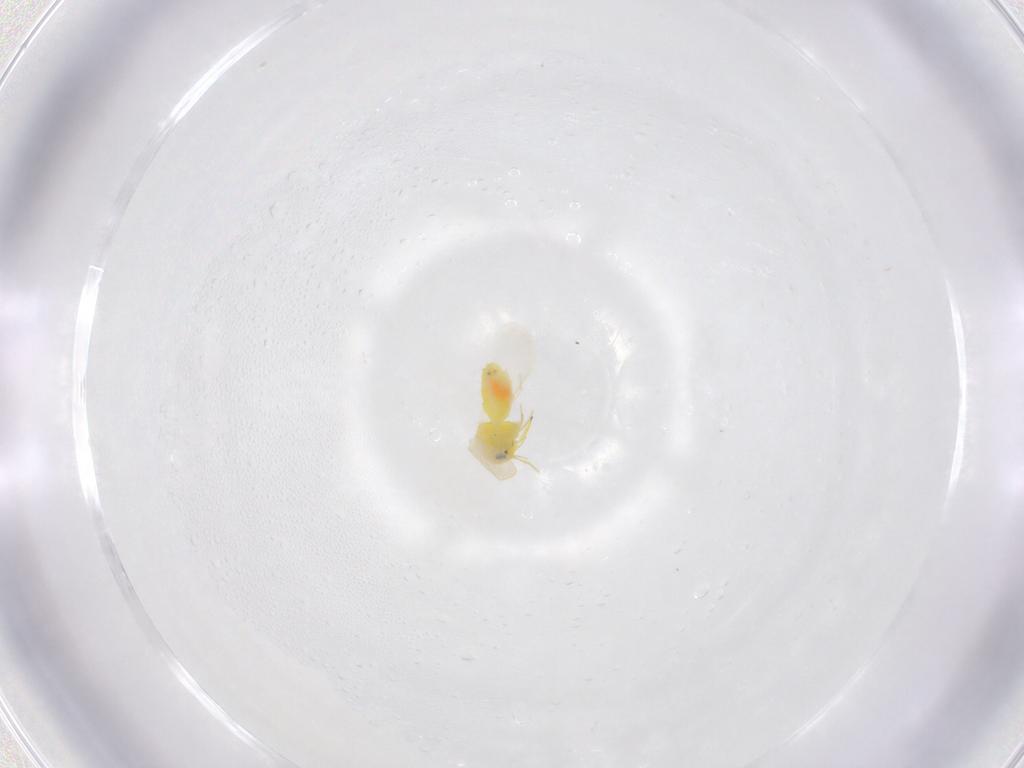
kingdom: Animalia
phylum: Arthropoda
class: Insecta
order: Hemiptera
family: Aleyrodidae
